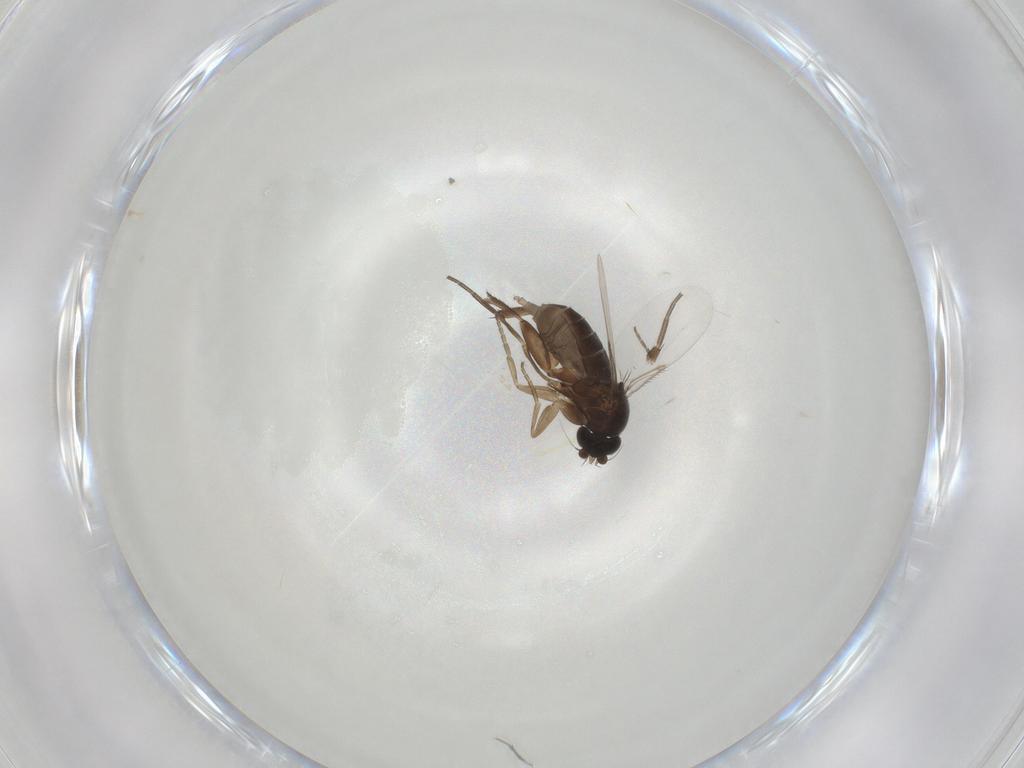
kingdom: Animalia
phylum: Arthropoda
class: Insecta
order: Diptera
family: Phoridae
